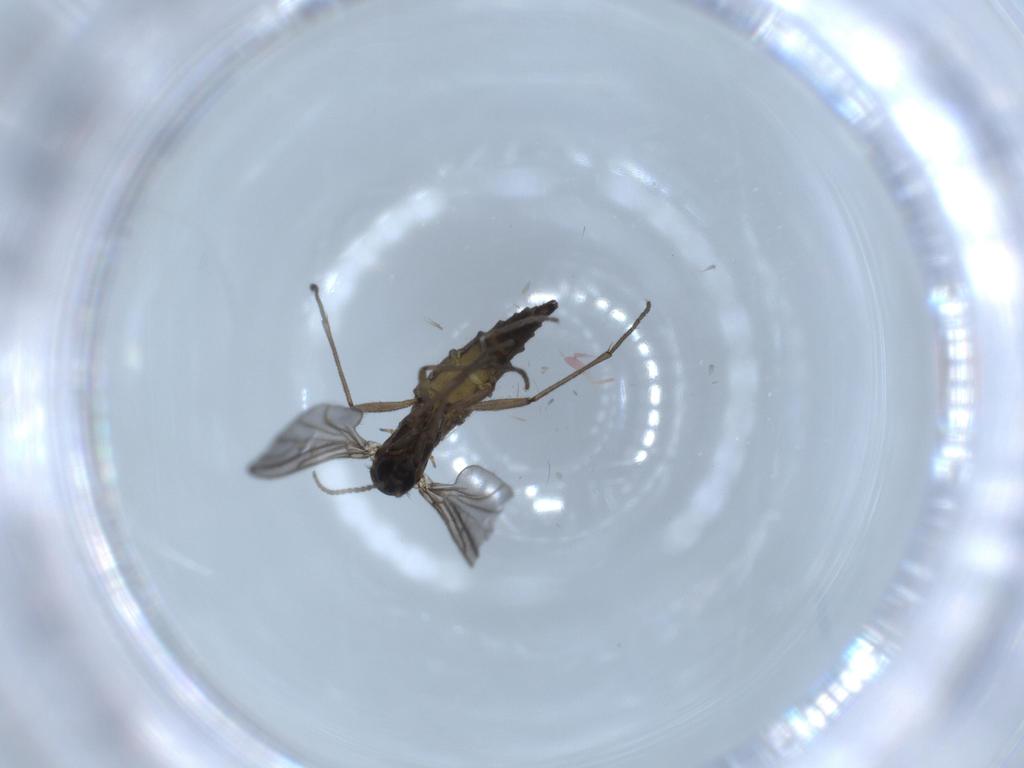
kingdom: Animalia
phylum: Arthropoda
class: Insecta
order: Diptera
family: Sciaridae
